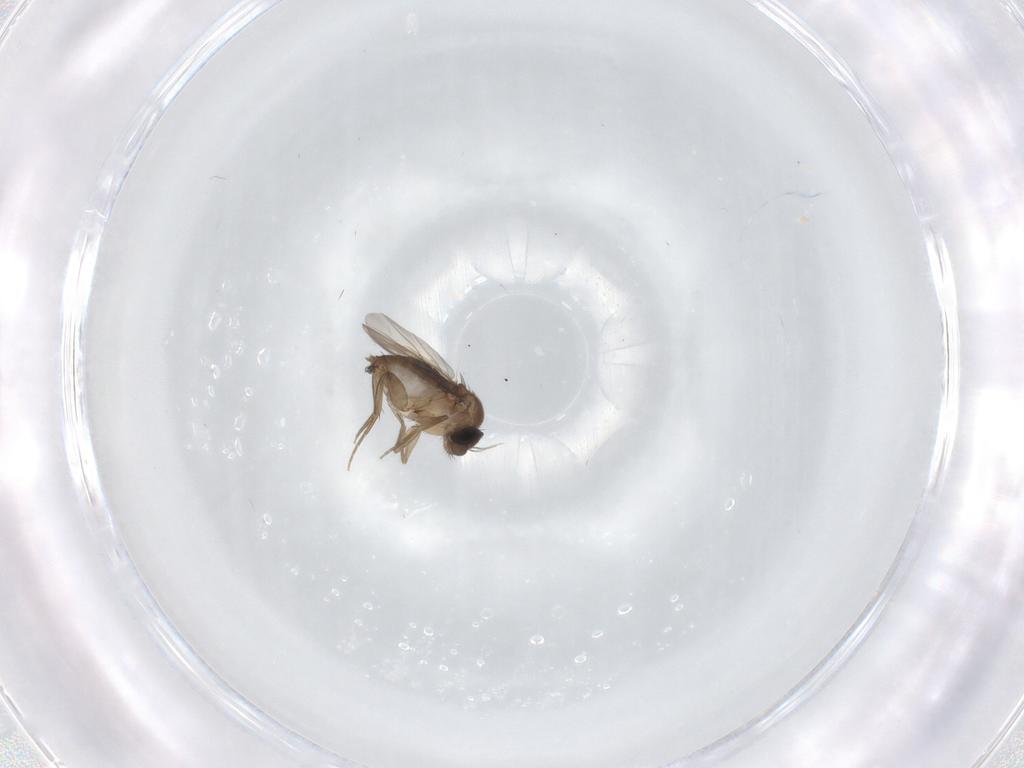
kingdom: Animalia
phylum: Arthropoda
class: Insecta
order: Diptera
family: Phoridae
